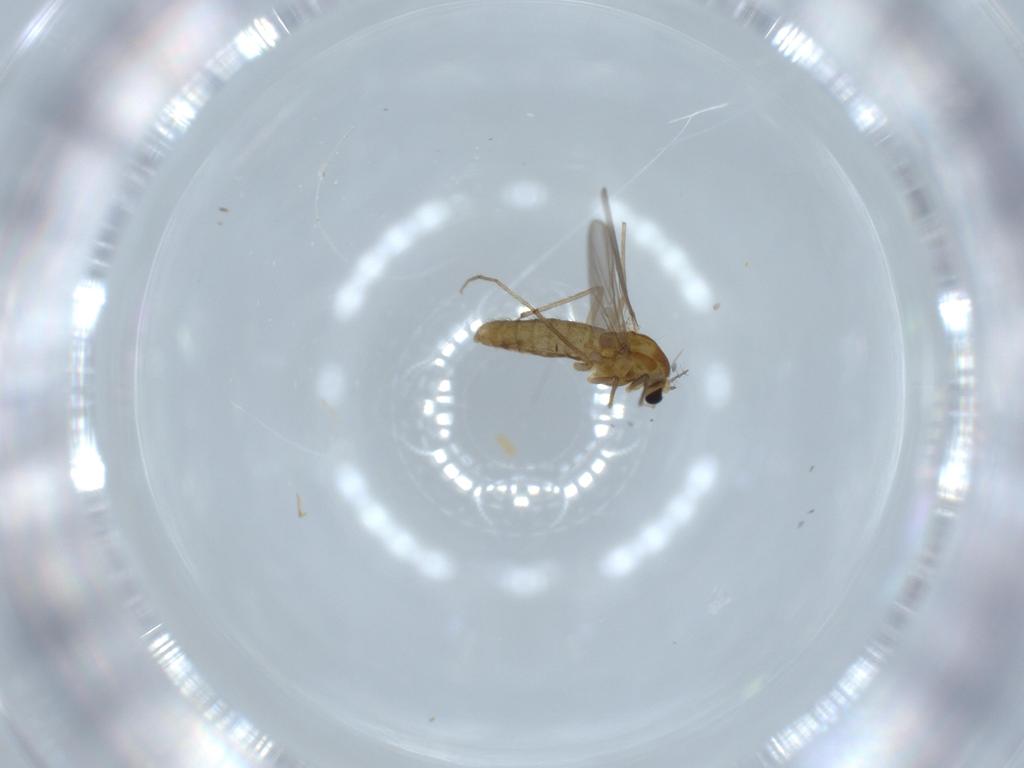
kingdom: Animalia
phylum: Arthropoda
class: Insecta
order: Diptera
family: Chironomidae
